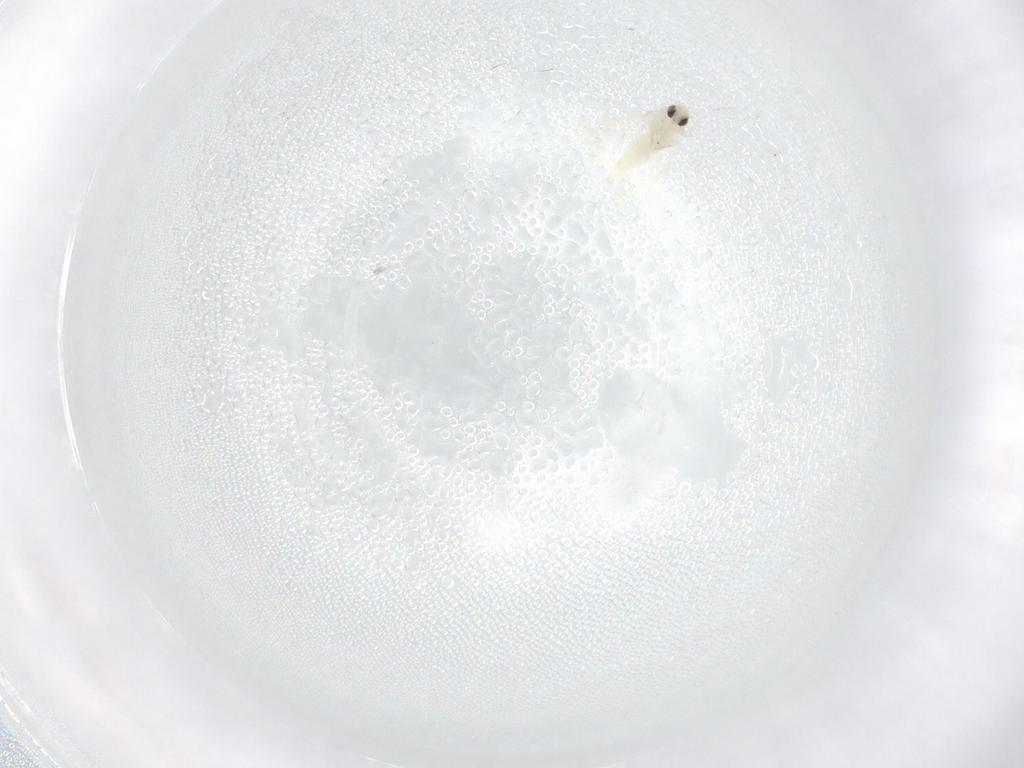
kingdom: Animalia
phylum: Arthropoda
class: Insecta
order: Hemiptera
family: Aleyrodidae
